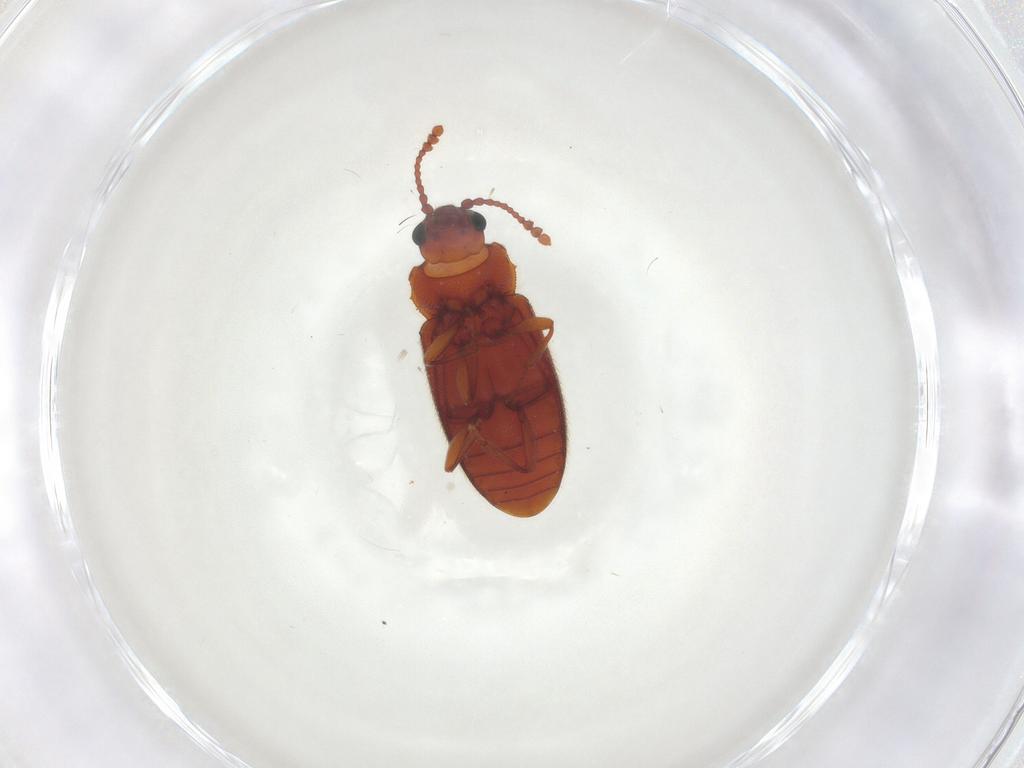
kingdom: Animalia
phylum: Arthropoda
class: Insecta
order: Coleoptera
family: Cryptophagidae
